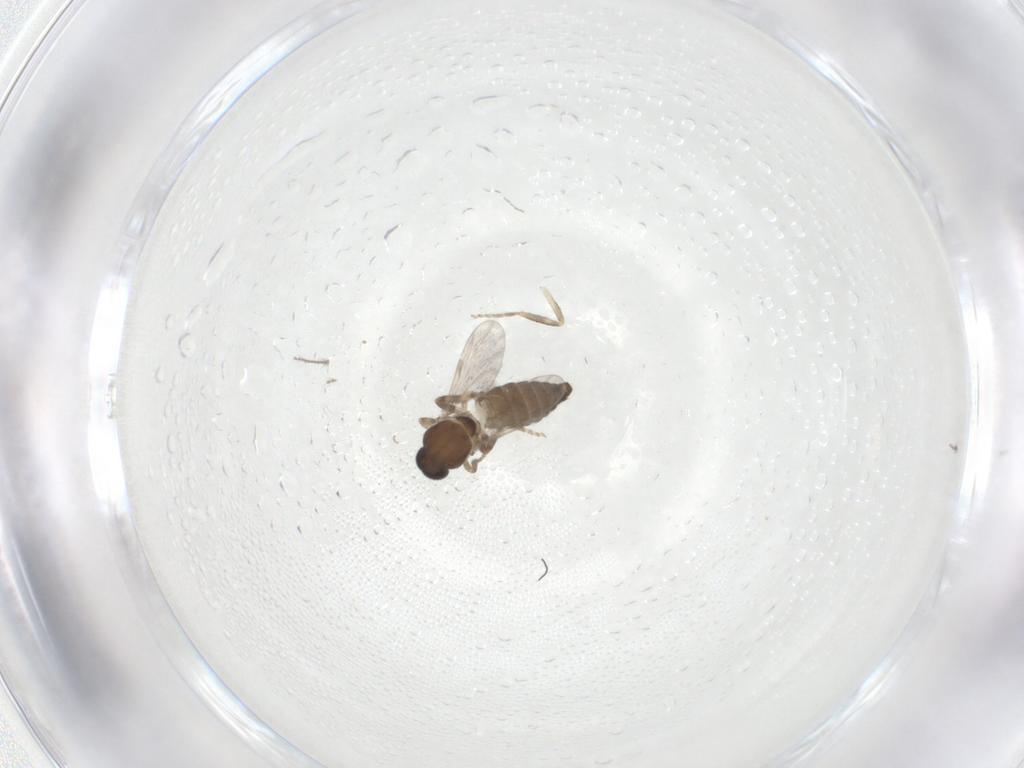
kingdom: Animalia
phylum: Arthropoda
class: Insecta
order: Diptera
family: Ceratopogonidae
